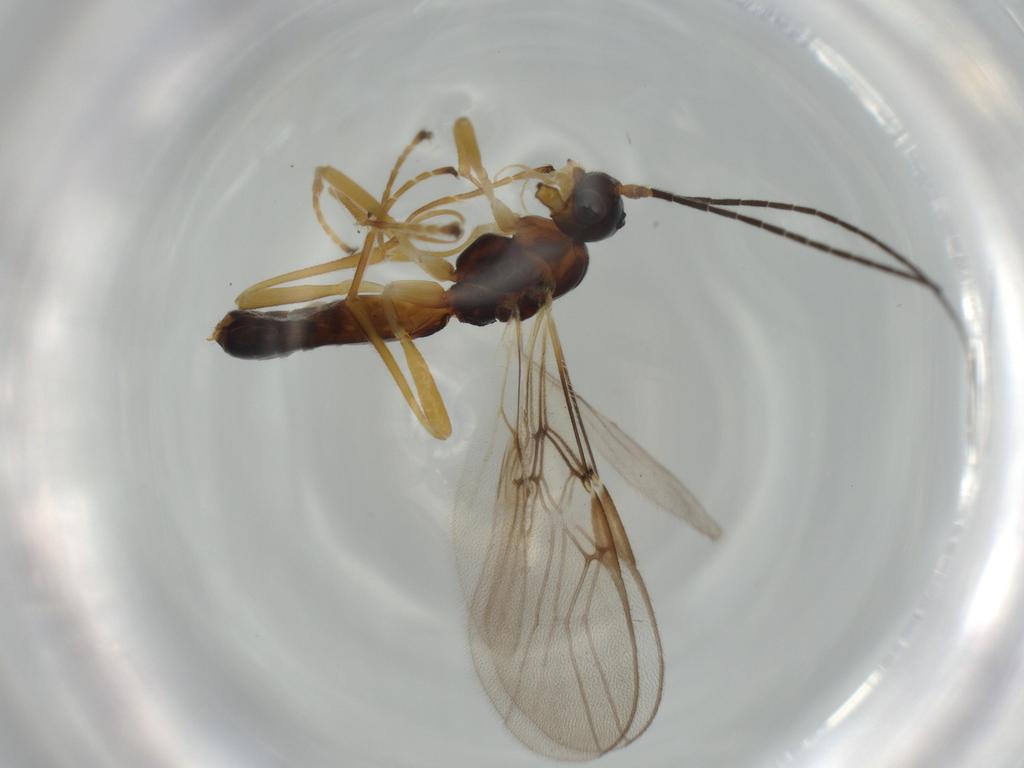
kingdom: Animalia
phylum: Arthropoda
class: Insecta
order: Hymenoptera
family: Braconidae
